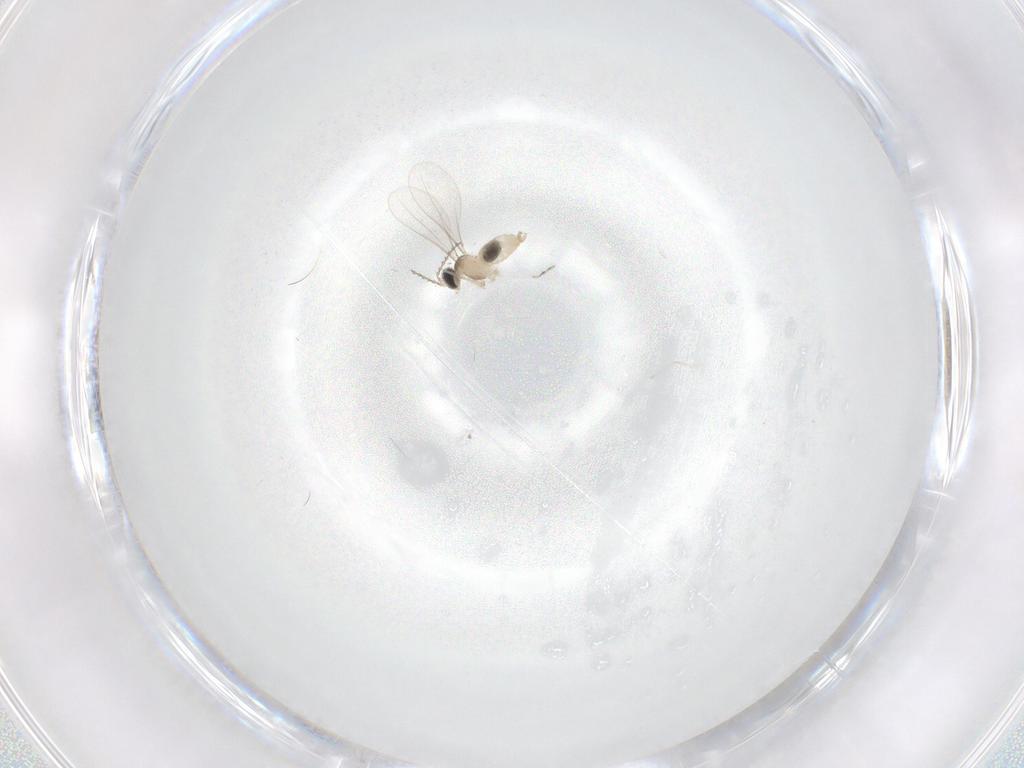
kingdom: Animalia
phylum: Arthropoda
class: Insecta
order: Diptera
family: Cecidomyiidae
